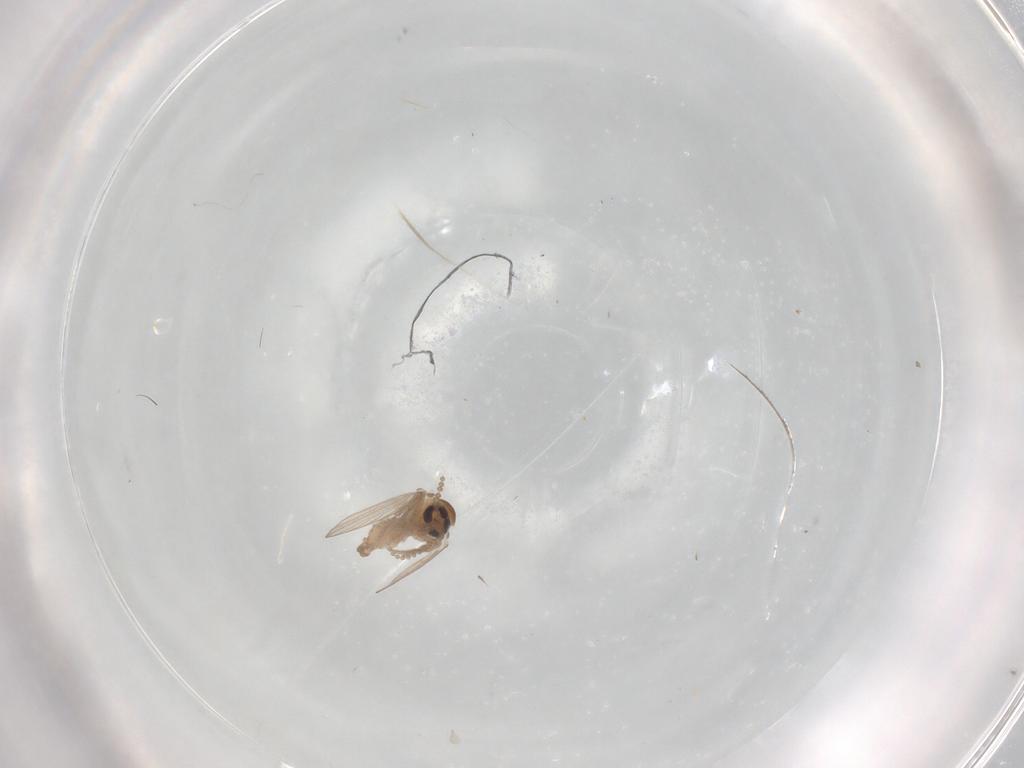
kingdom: Animalia
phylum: Arthropoda
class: Insecta
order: Diptera
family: Psychodidae
